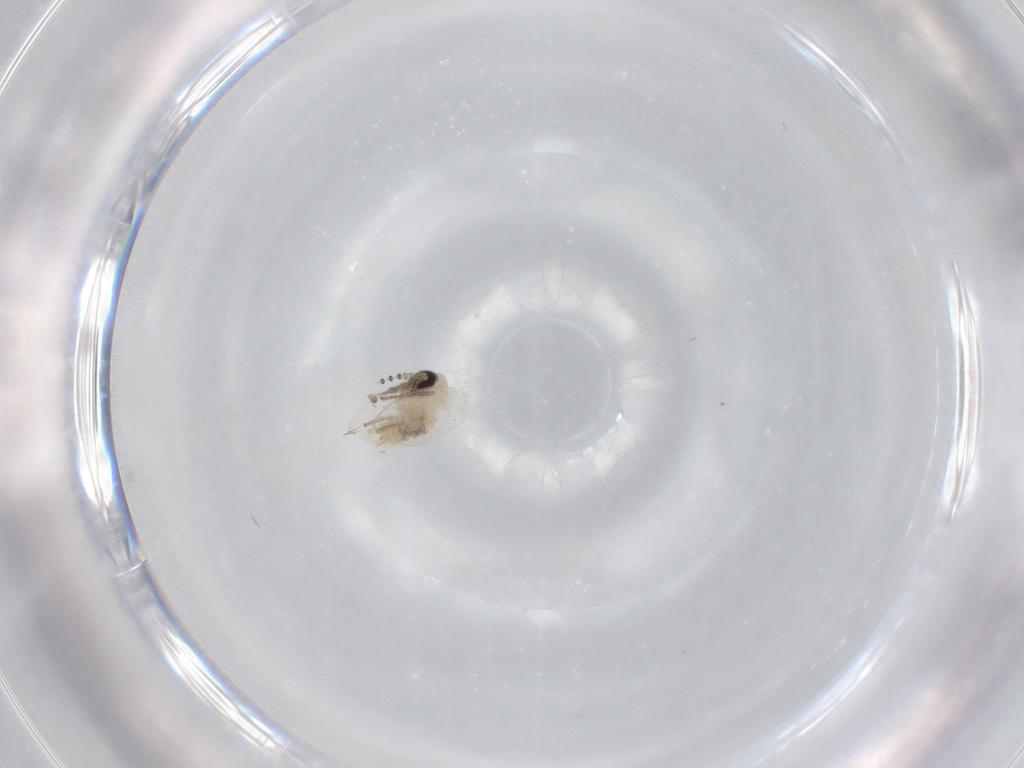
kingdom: Animalia
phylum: Arthropoda
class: Insecta
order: Diptera
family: Psychodidae
